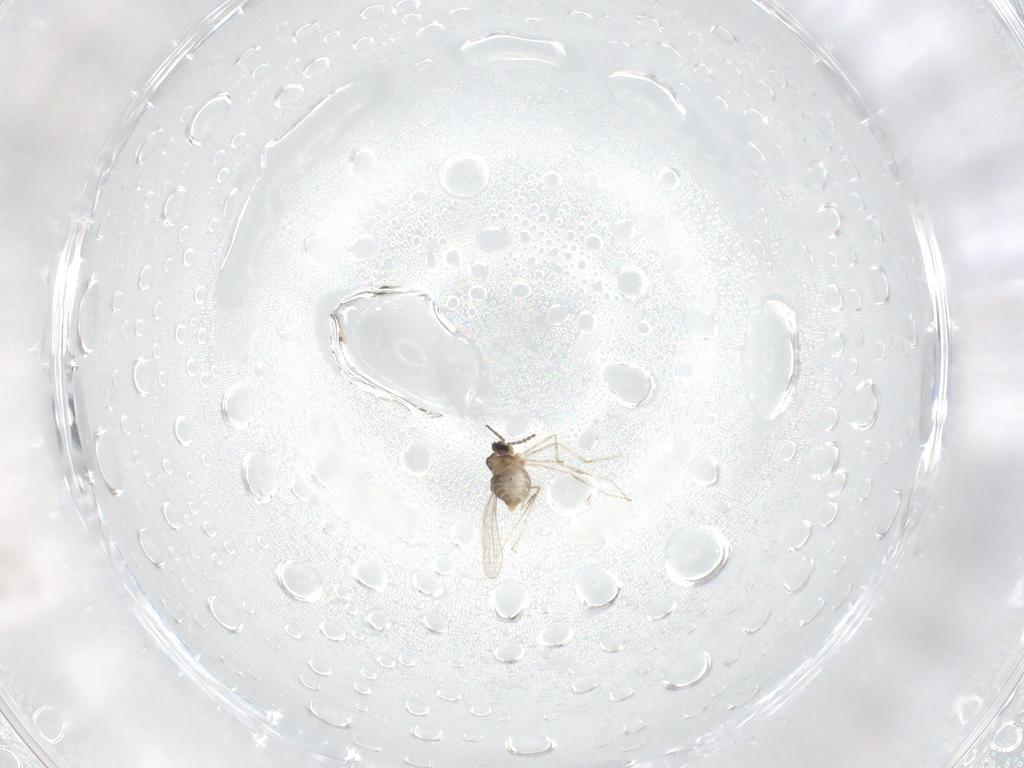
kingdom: Animalia
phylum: Arthropoda
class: Insecta
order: Diptera
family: Cecidomyiidae
